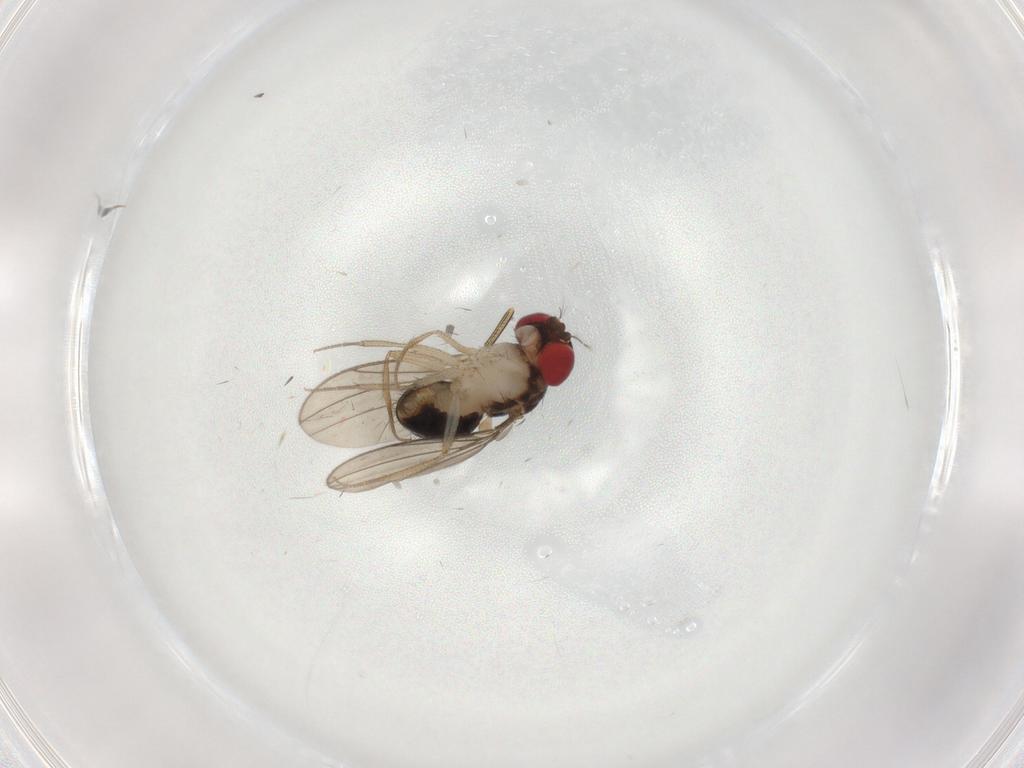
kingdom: Animalia
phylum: Arthropoda
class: Insecta
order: Diptera
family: Drosophilidae
